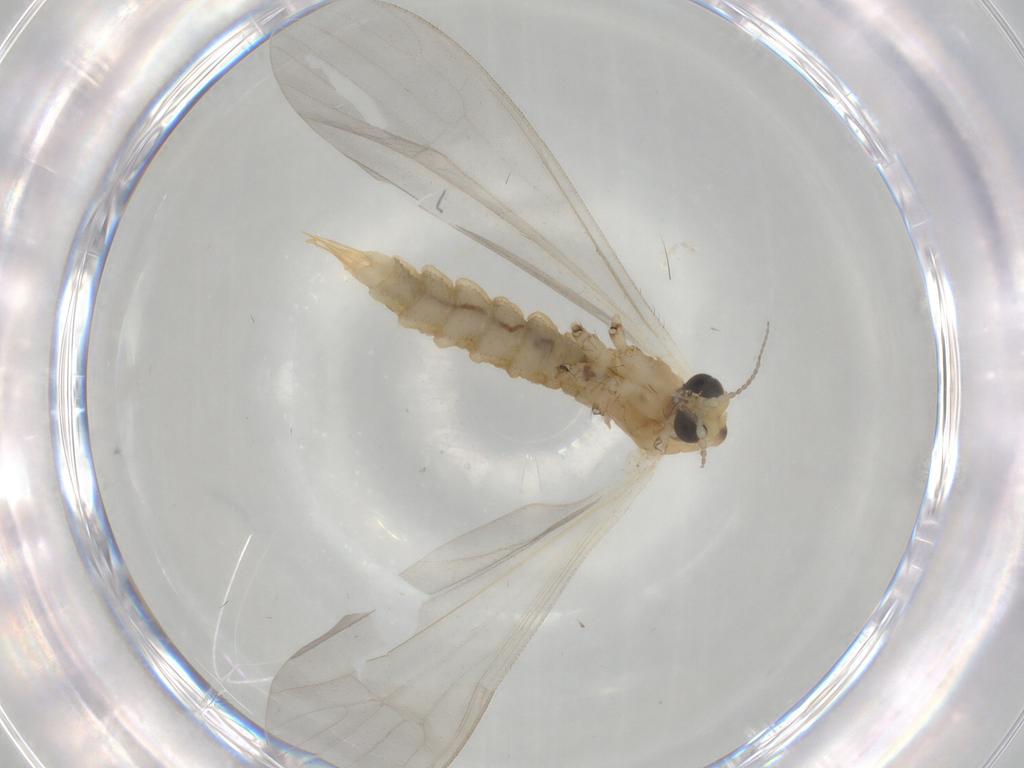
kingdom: Animalia
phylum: Arthropoda
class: Insecta
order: Diptera
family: Limoniidae
